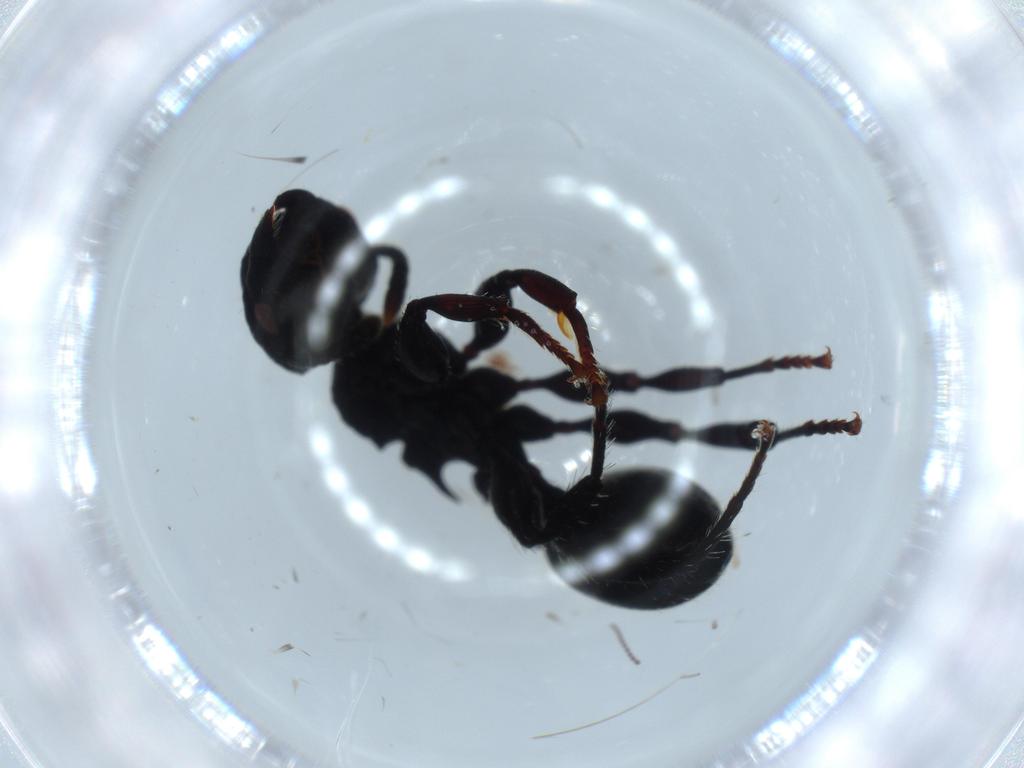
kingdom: Animalia
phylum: Arthropoda
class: Insecta
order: Hymenoptera
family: Formicidae
